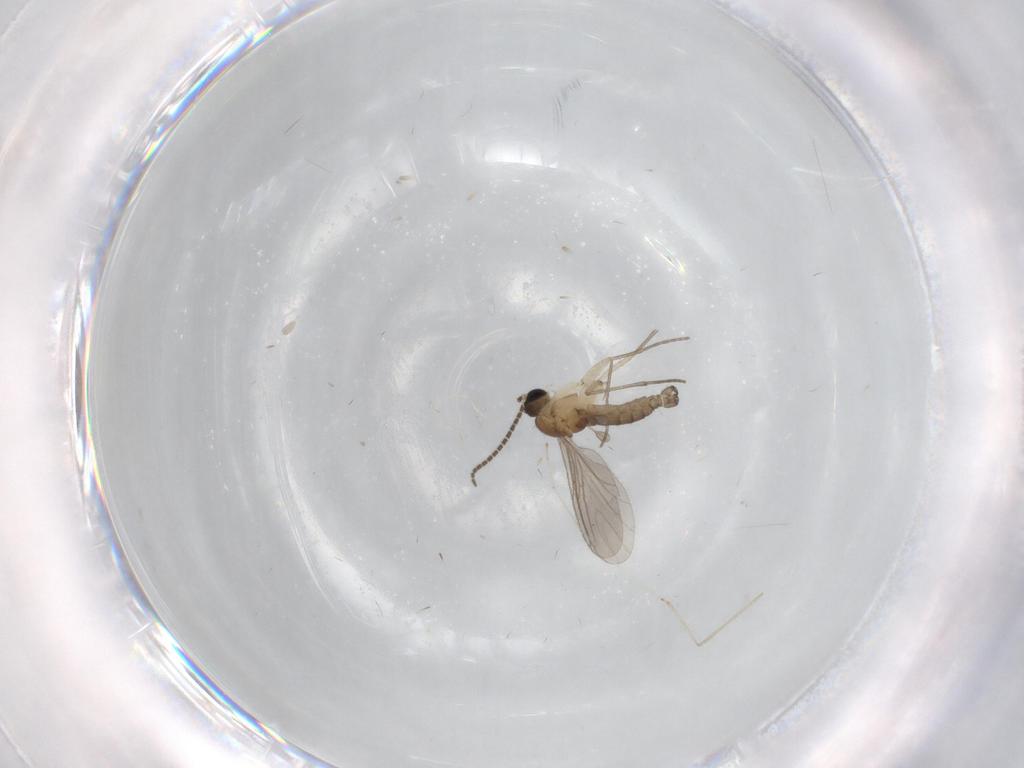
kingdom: Animalia
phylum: Arthropoda
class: Insecta
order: Diptera
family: Sciaridae
